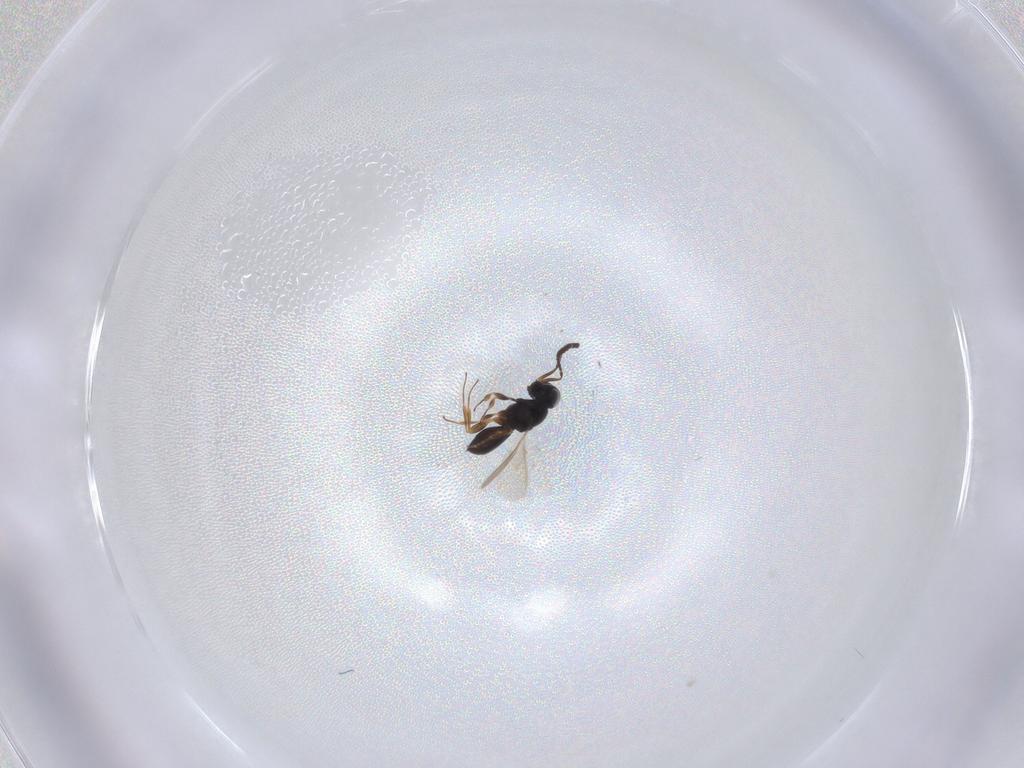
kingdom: Animalia
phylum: Arthropoda
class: Insecta
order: Hymenoptera
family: Scelionidae
